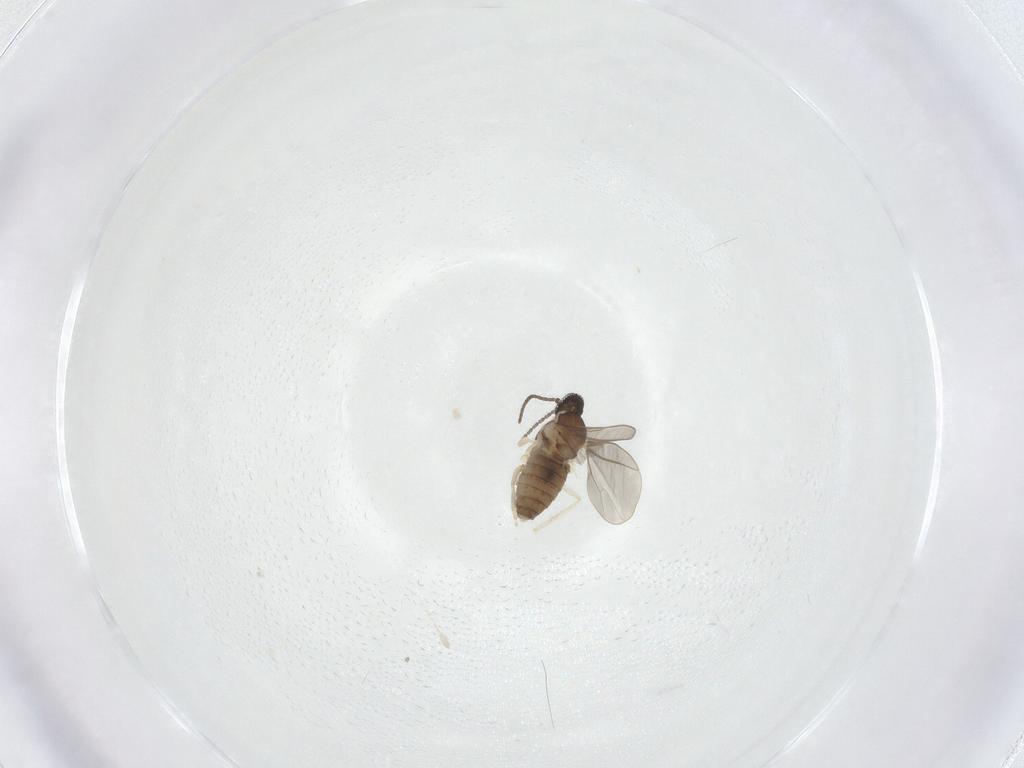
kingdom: Animalia
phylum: Arthropoda
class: Insecta
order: Diptera
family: Cecidomyiidae
